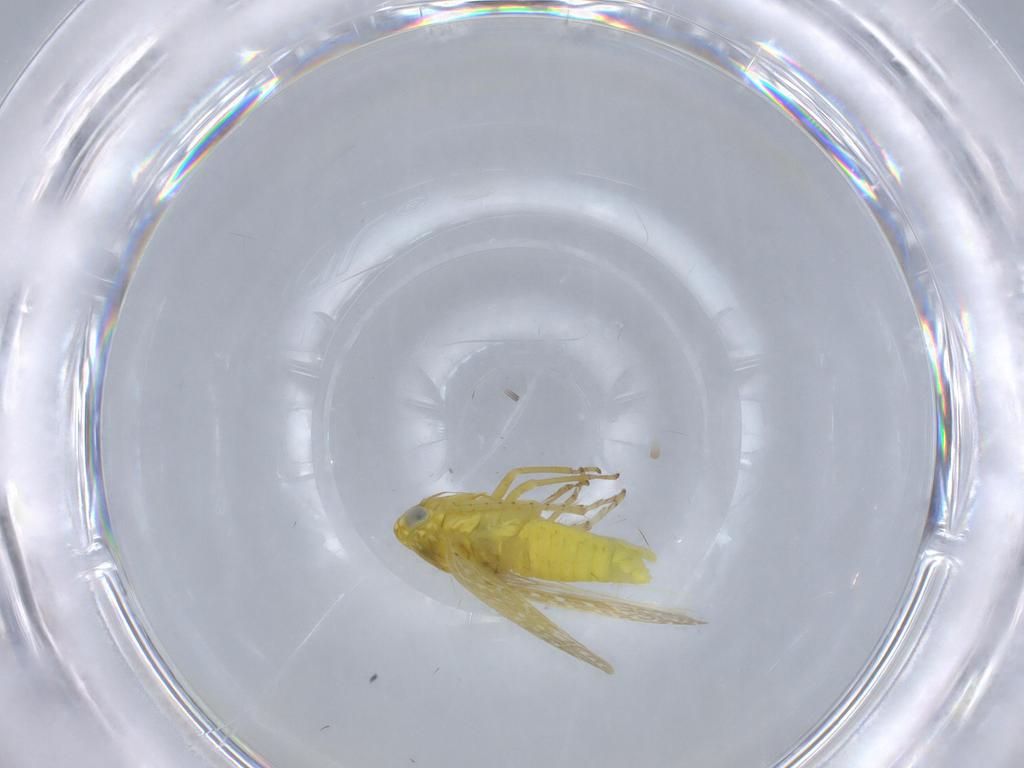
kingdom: Animalia
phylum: Arthropoda
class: Insecta
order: Hemiptera
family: Cicadellidae
